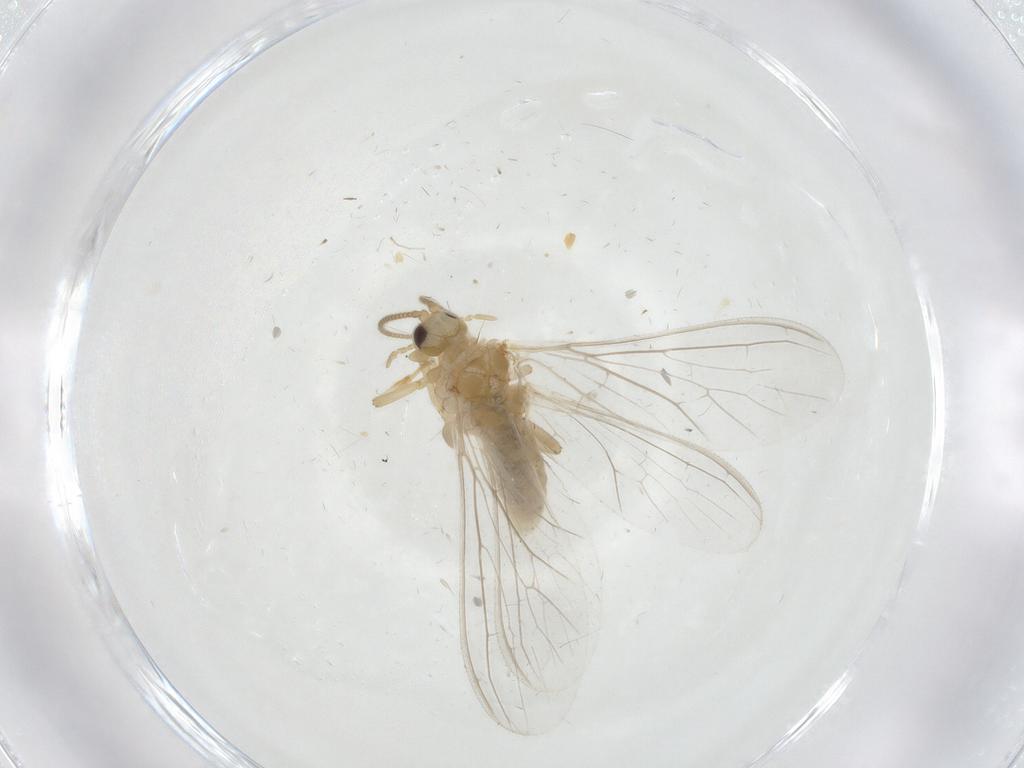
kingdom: Animalia
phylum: Arthropoda
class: Insecta
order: Neuroptera
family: Coniopterygidae
